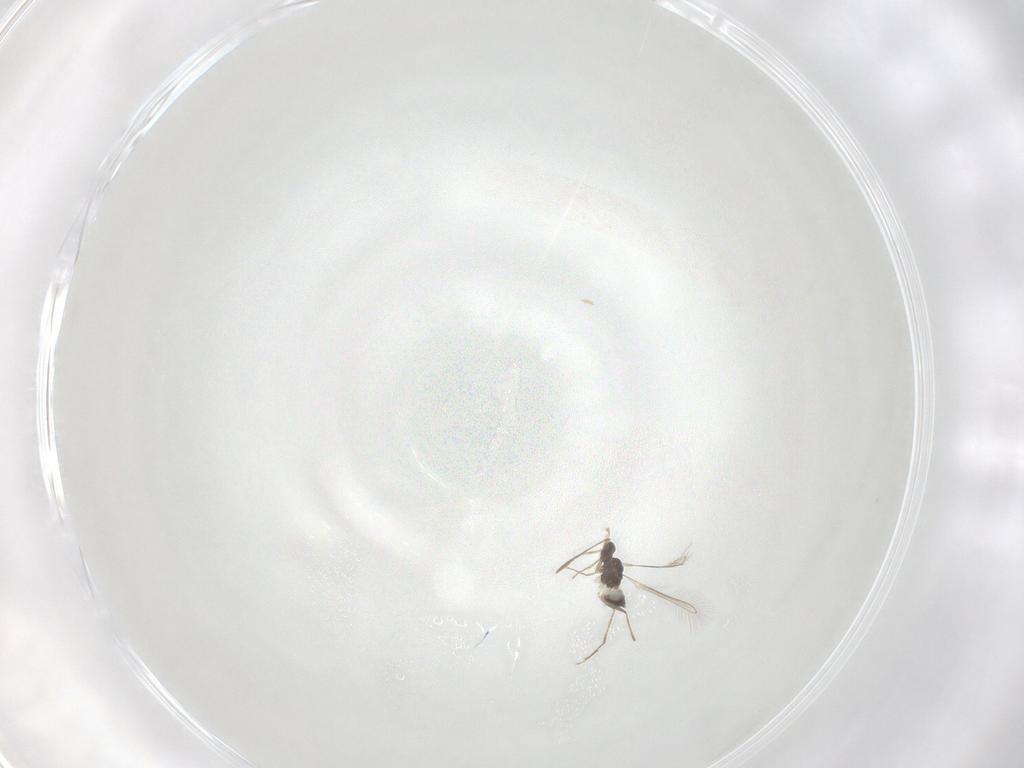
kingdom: Animalia
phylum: Arthropoda
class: Insecta
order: Hymenoptera
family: Mymaridae
